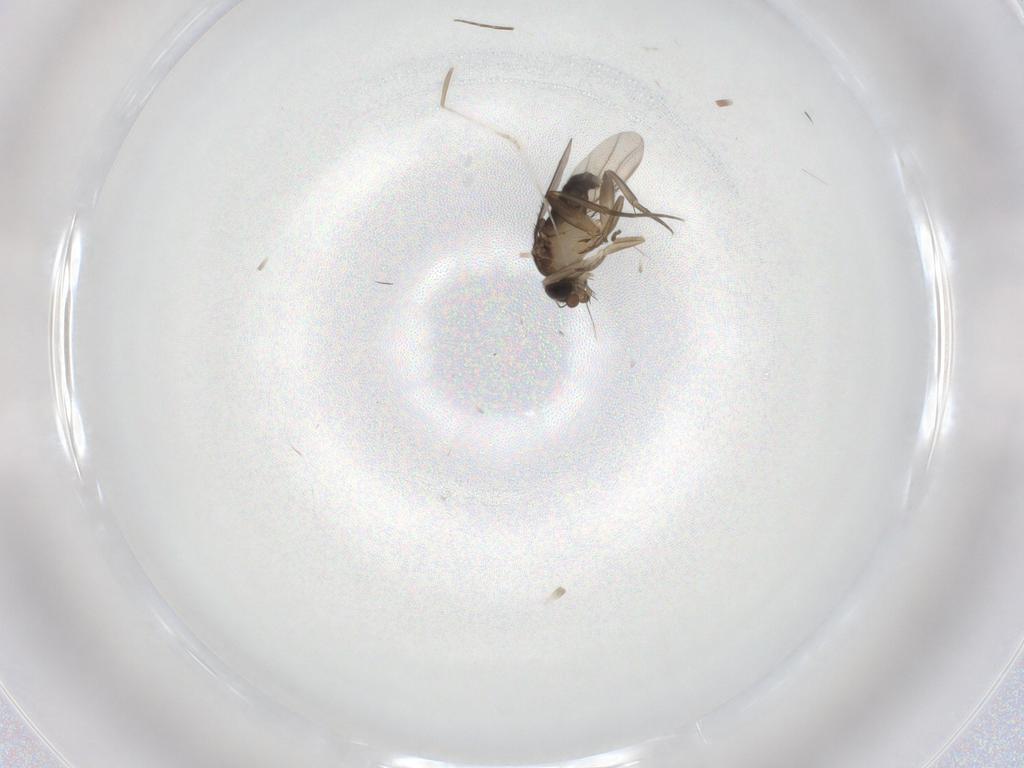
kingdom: Animalia
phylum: Arthropoda
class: Insecta
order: Diptera
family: Phoridae
